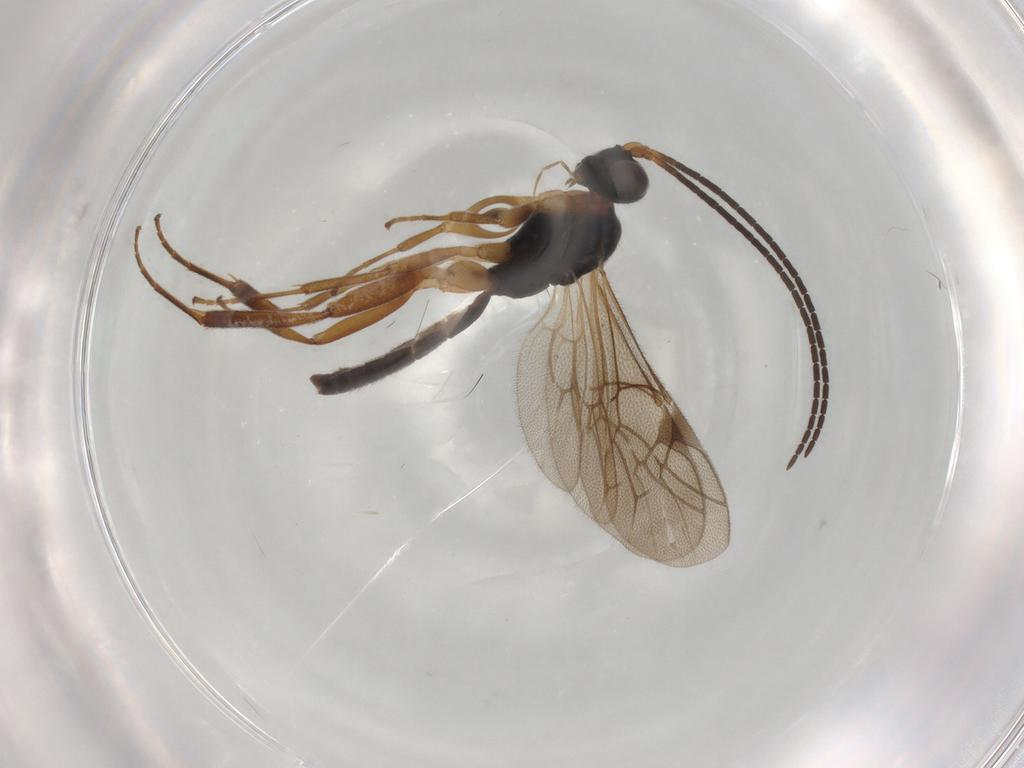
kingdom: Animalia
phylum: Arthropoda
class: Insecta
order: Hymenoptera
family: Ichneumonidae
